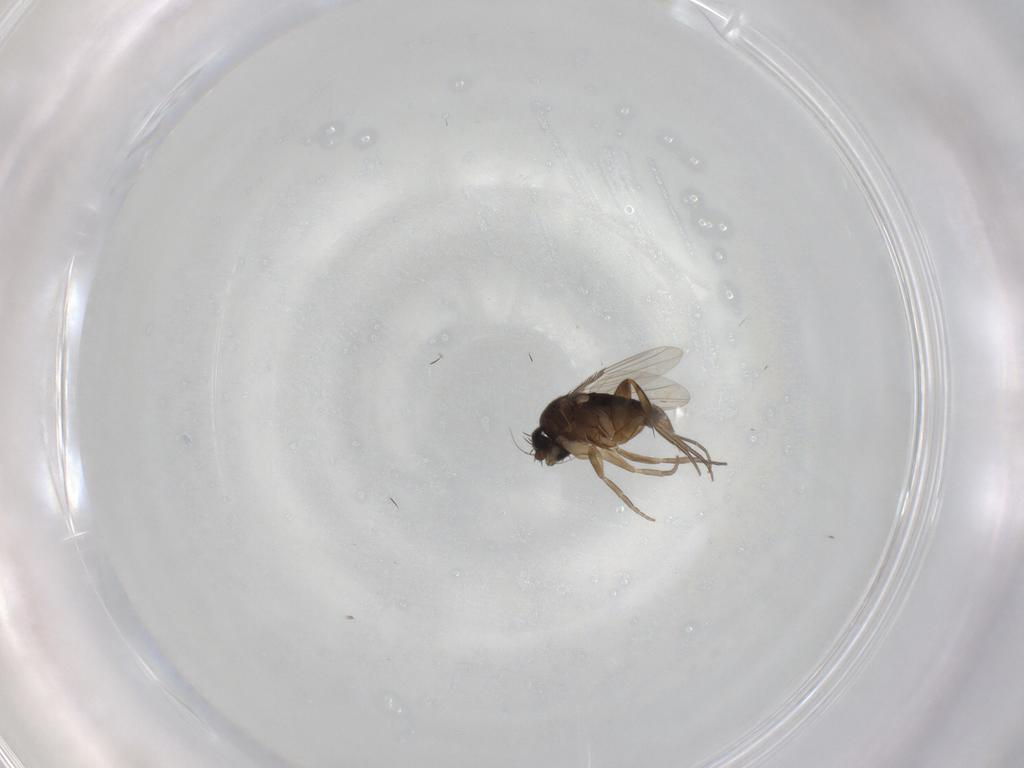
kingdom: Animalia
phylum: Arthropoda
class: Insecta
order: Diptera
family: Phoridae
